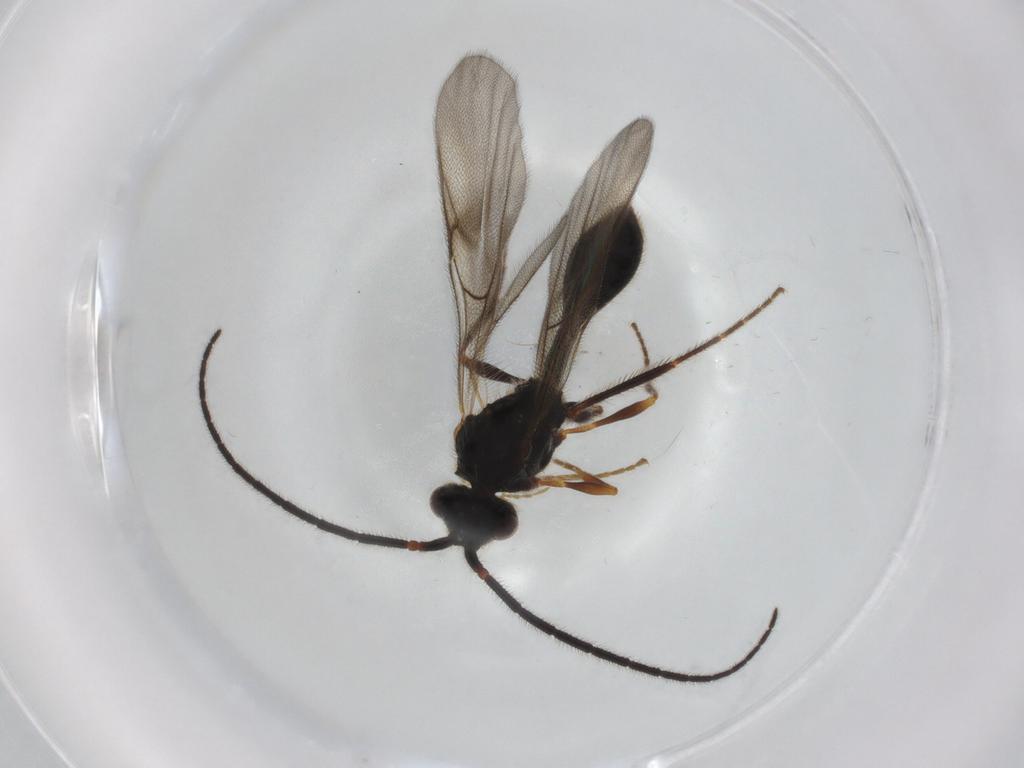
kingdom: Animalia
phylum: Arthropoda
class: Insecta
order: Hymenoptera
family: Diapriidae
